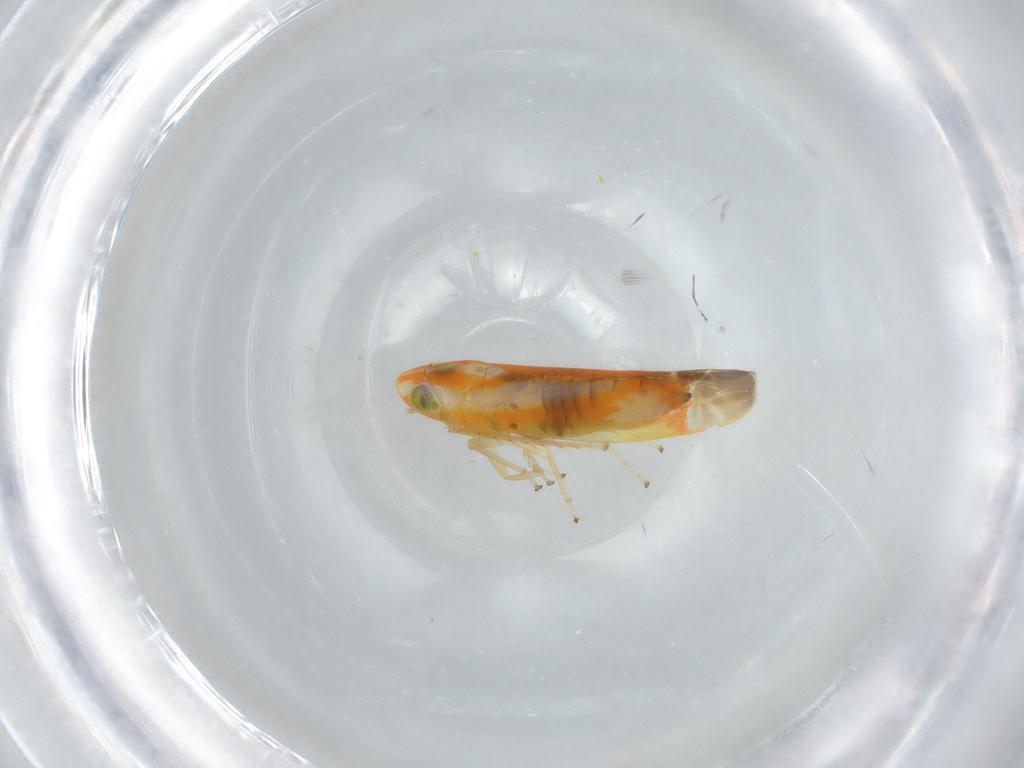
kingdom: Animalia
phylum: Arthropoda
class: Insecta
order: Hemiptera
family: Cicadellidae
